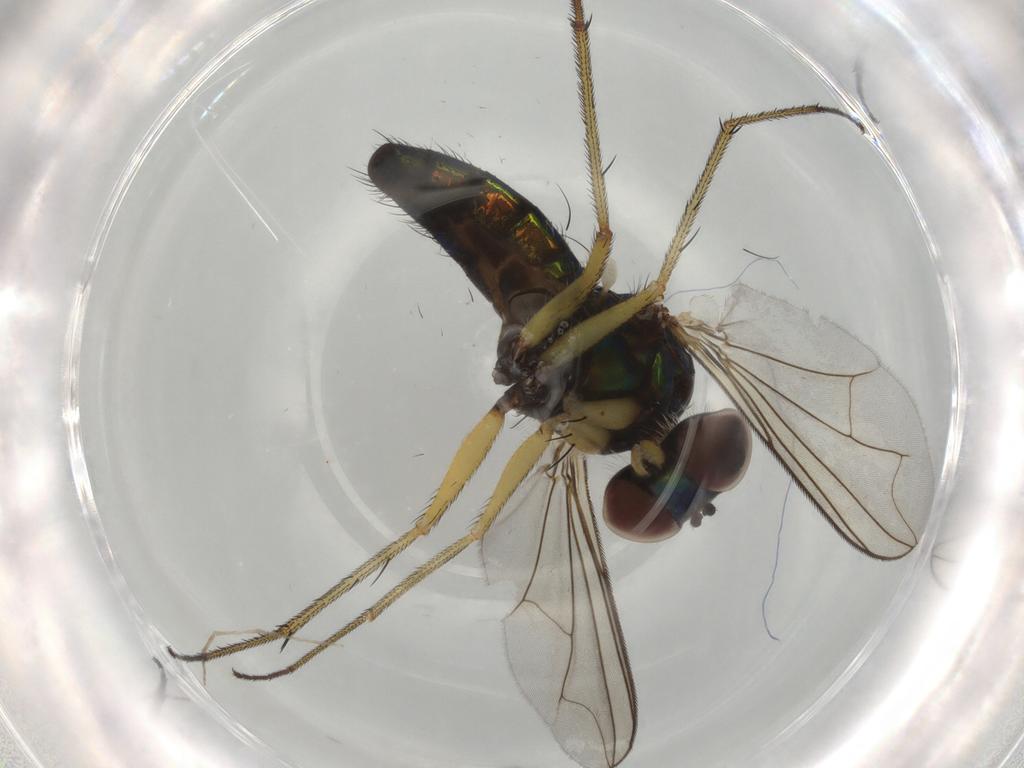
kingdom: Animalia
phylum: Arthropoda
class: Insecta
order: Diptera
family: Dolichopodidae
